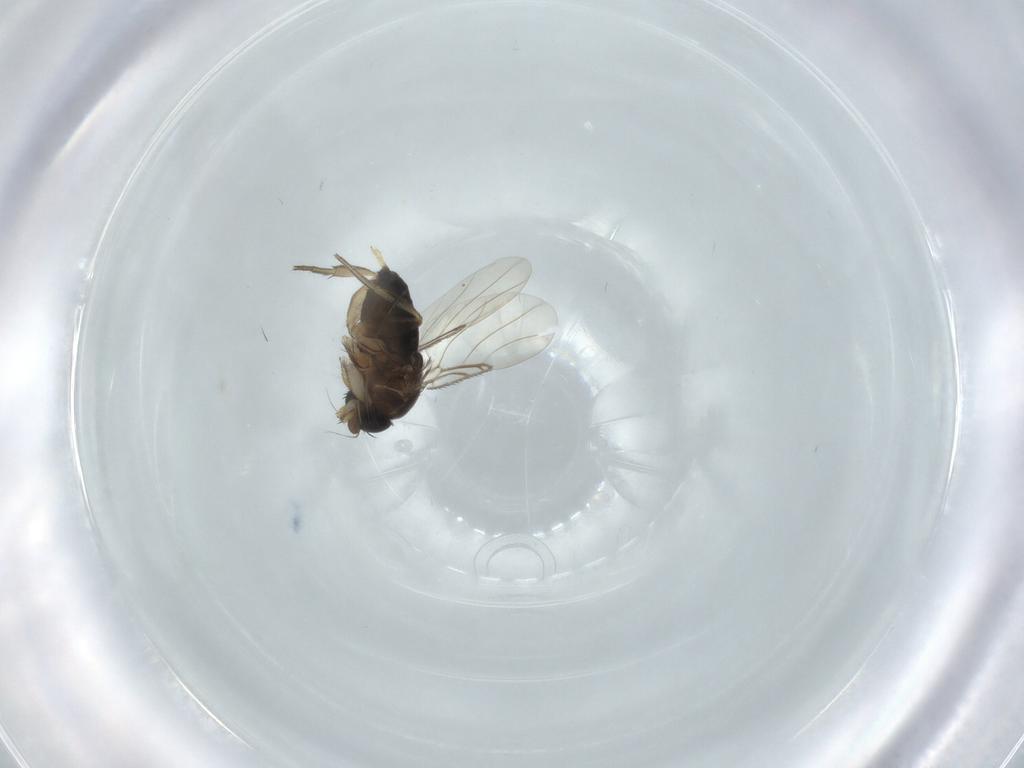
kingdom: Animalia
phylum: Arthropoda
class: Insecta
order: Diptera
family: Phoridae
